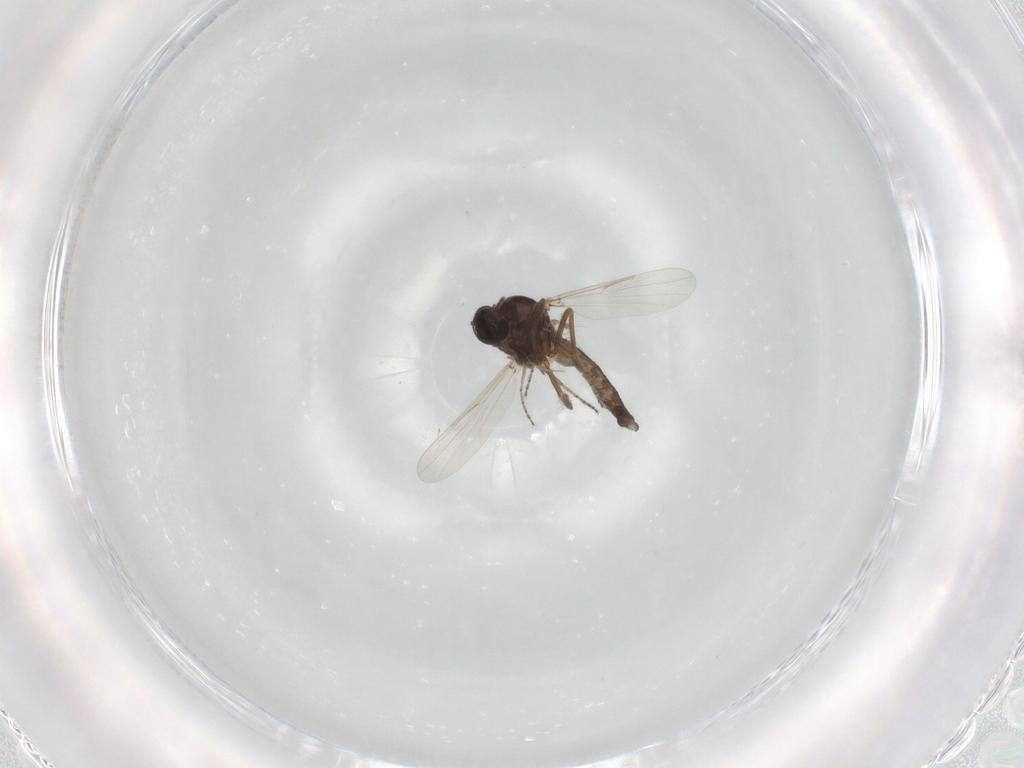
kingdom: Animalia
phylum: Arthropoda
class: Insecta
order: Diptera
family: Ceratopogonidae
